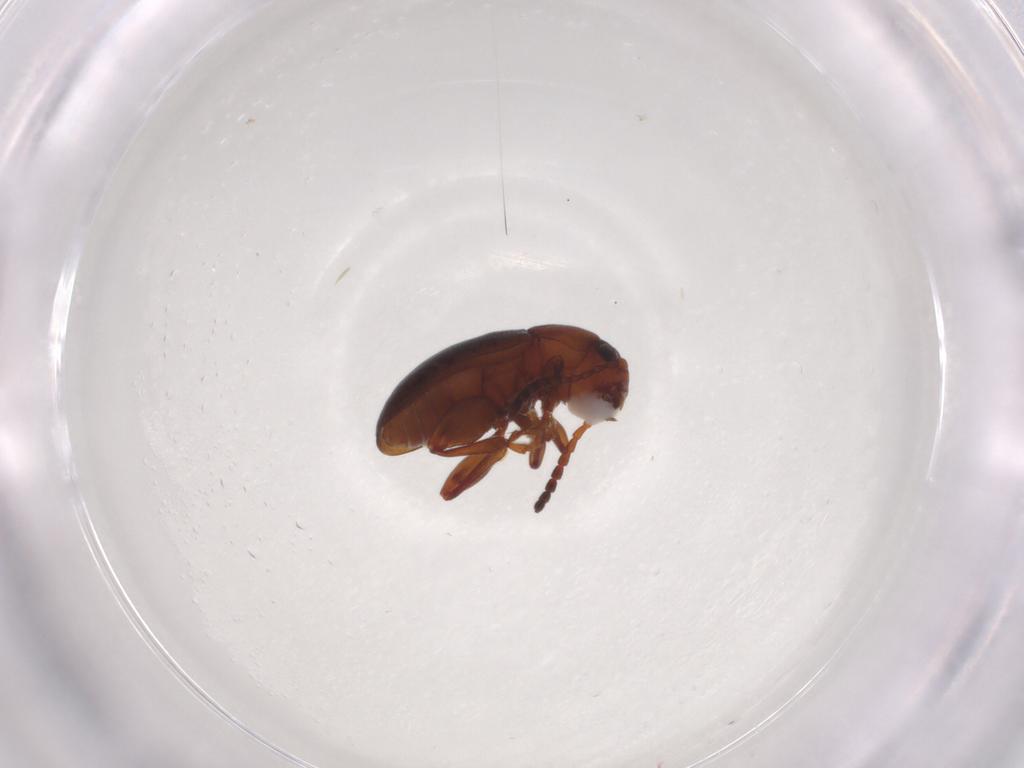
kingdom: Animalia
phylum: Arthropoda
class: Insecta
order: Coleoptera
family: Chrysomelidae
